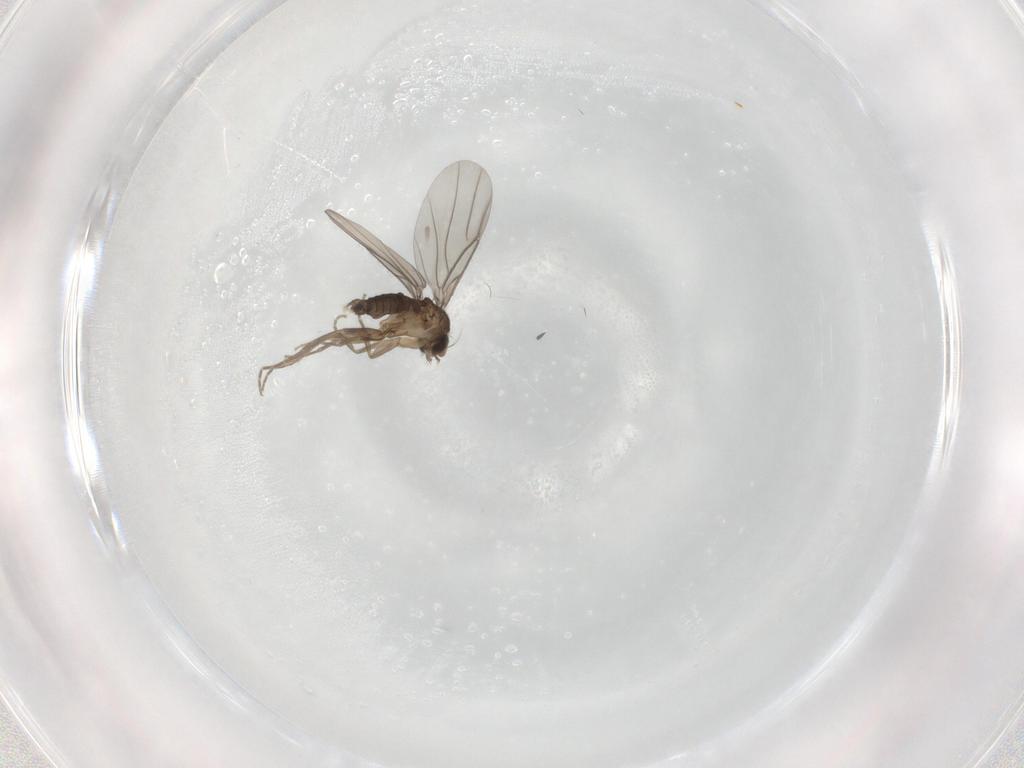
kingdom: Animalia
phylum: Arthropoda
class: Insecta
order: Diptera
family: Phoridae
